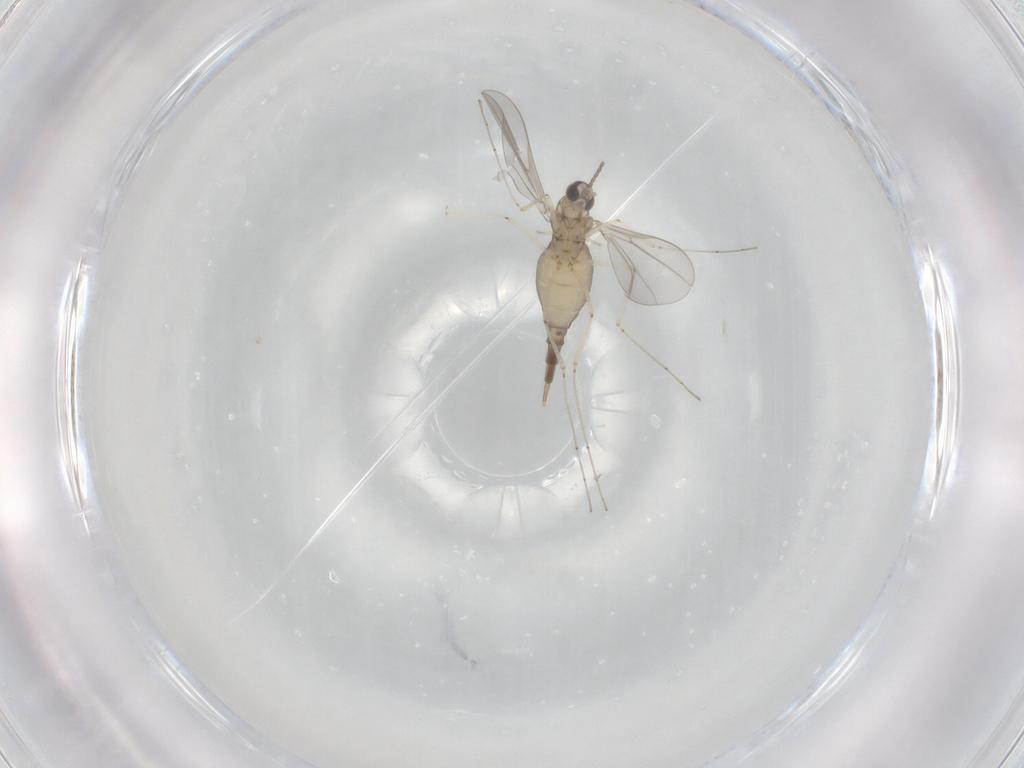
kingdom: Animalia
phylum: Arthropoda
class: Insecta
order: Diptera
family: Cecidomyiidae
